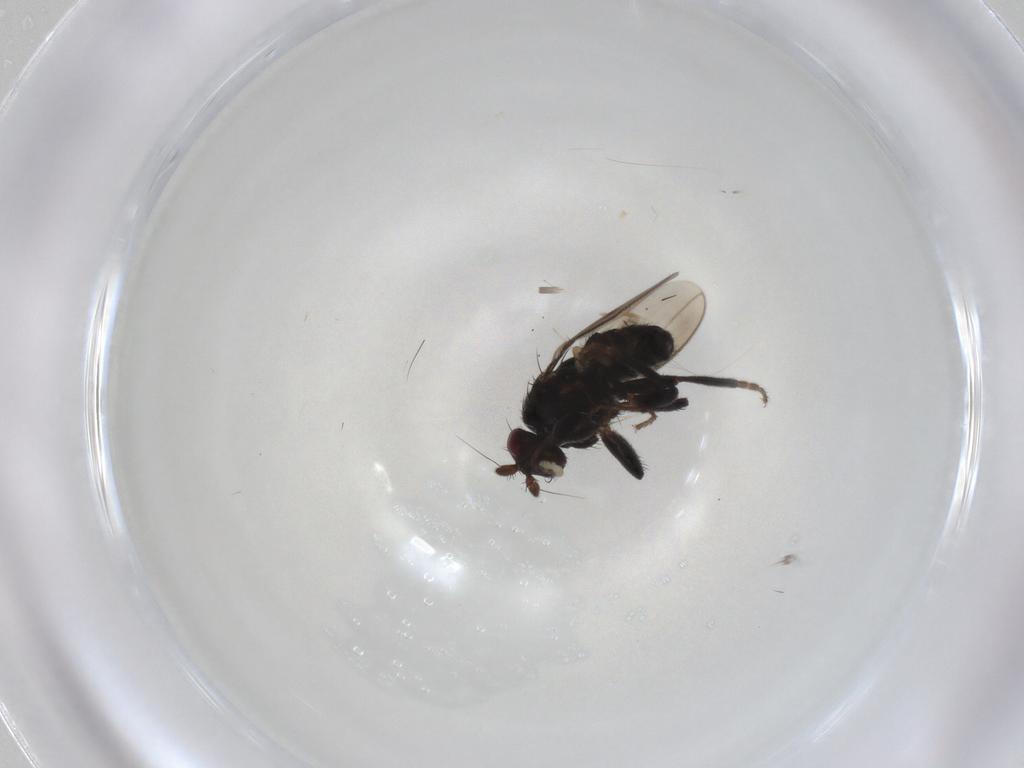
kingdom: Animalia
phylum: Arthropoda
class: Insecta
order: Diptera
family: Sphaeroceridae
